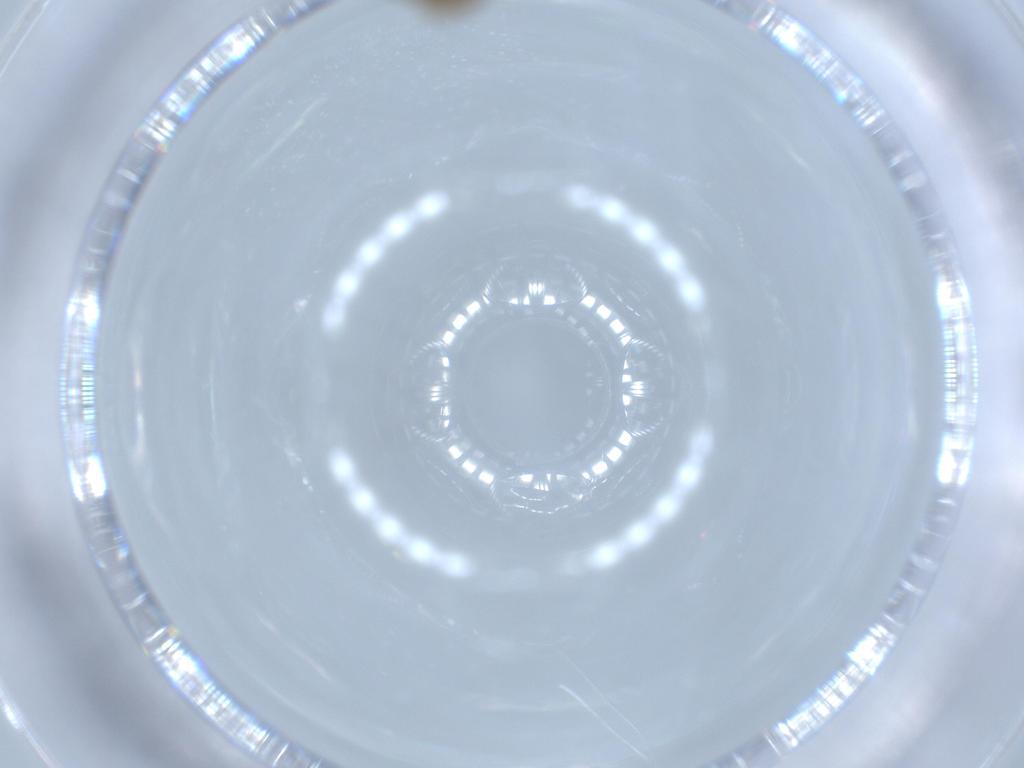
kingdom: Animalia
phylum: Arthropoda
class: Insecta
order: Diptera
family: Chironomidae
